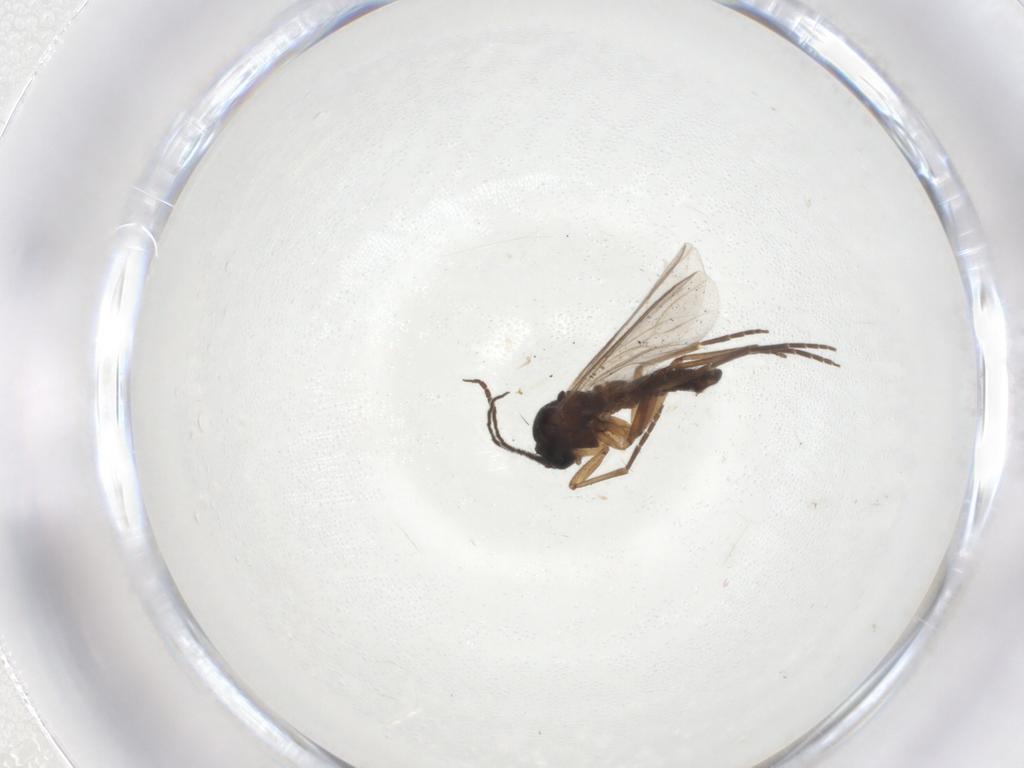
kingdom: Animalia
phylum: Arthropoda
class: Insecta
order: Diptera
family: Sciaridae
